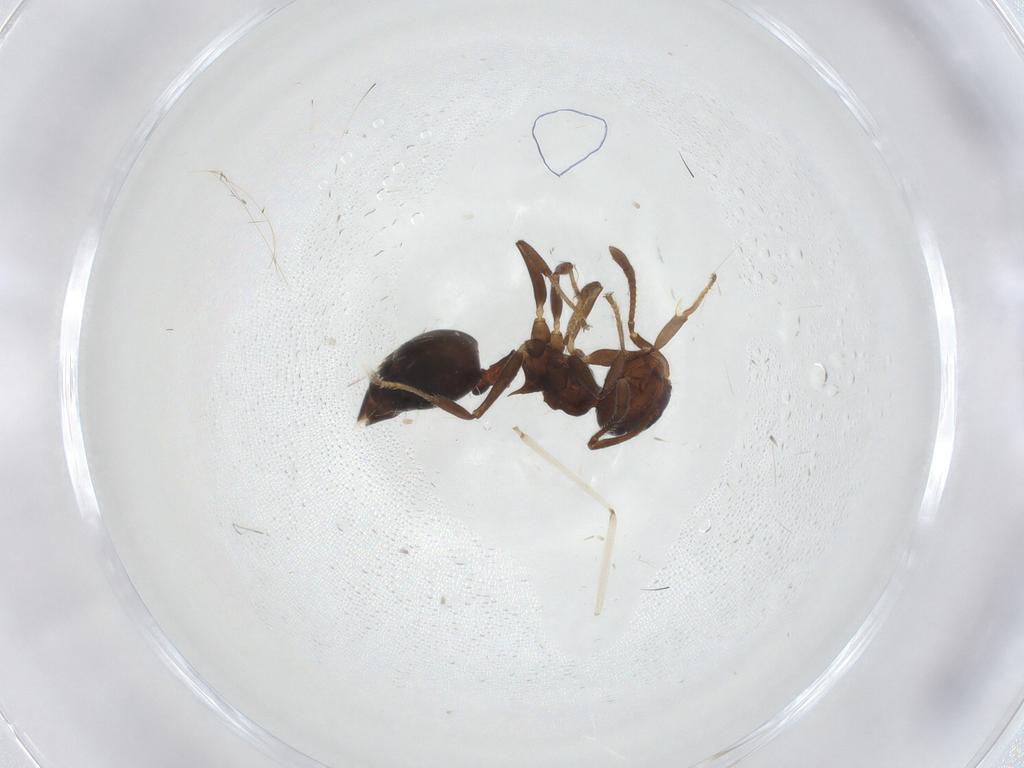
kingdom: Animalia
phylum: Arthropoda
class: Insecta
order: Hymenoptera
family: Formicidae
